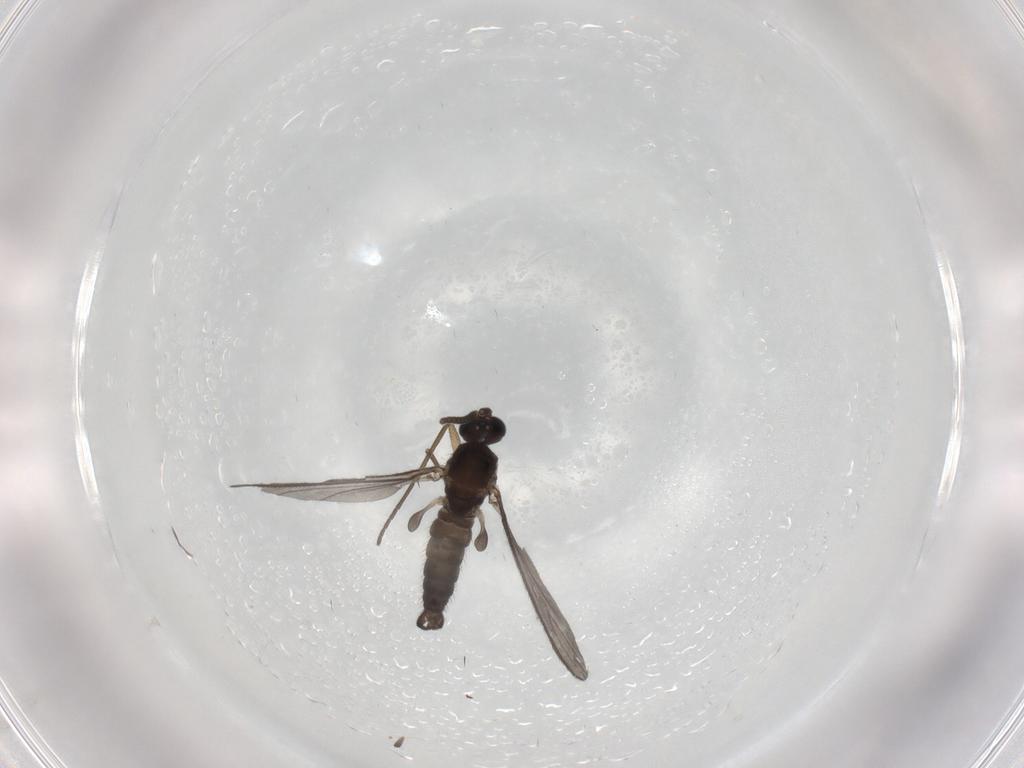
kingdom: Animalia
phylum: Arthropoda
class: Insecta
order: Diptera
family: Sciaridae
